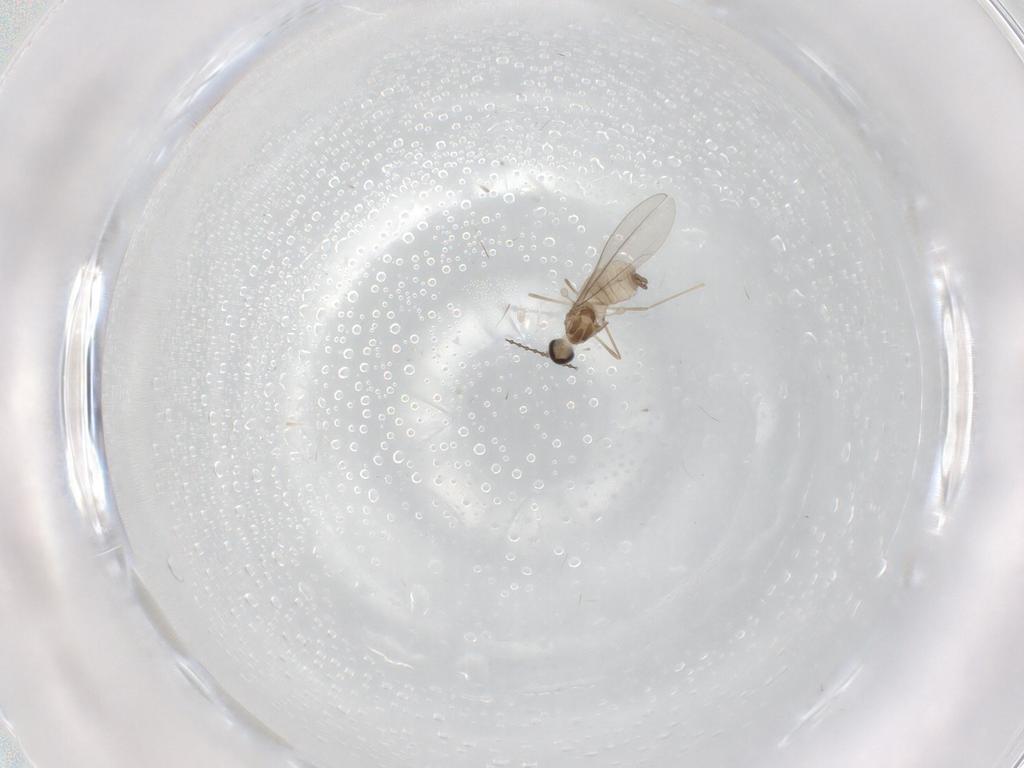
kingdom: Animalia
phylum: Arthropoda
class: Insecta
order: Diptera
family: Cecidomyiidae
